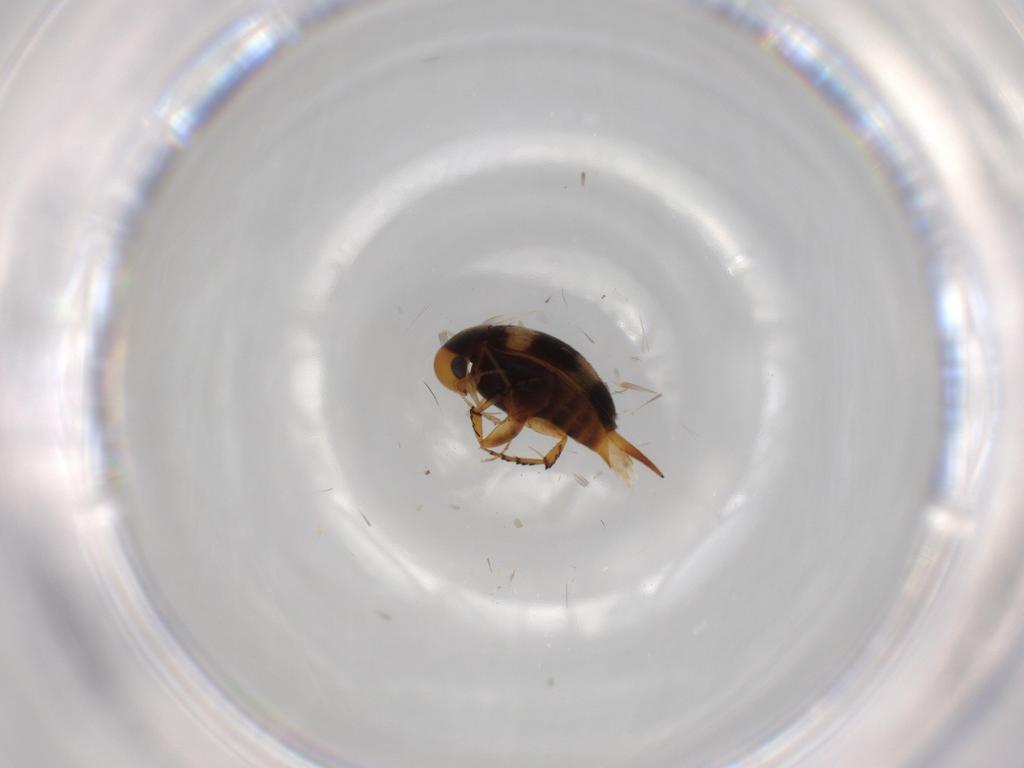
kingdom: Animalia
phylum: Arthropoda
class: Insecta
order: Coleoptera
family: Mordellidae
